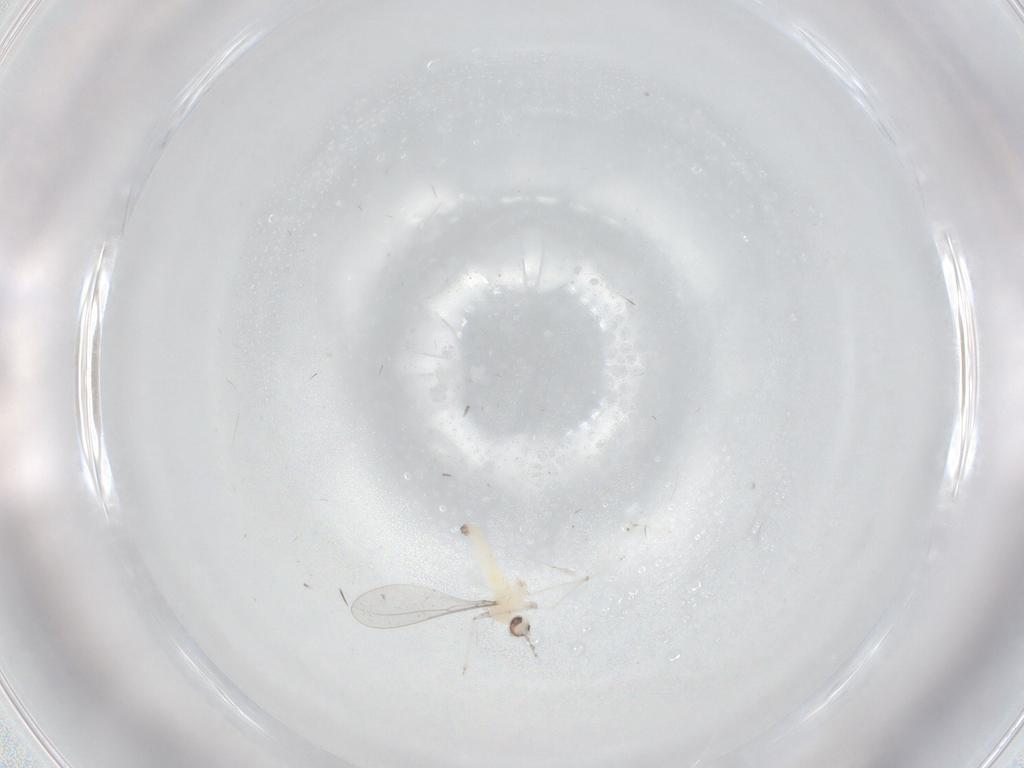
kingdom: Animalia
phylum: Arthropoda
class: Insecta
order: Diptera
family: Cecidomyiidae
